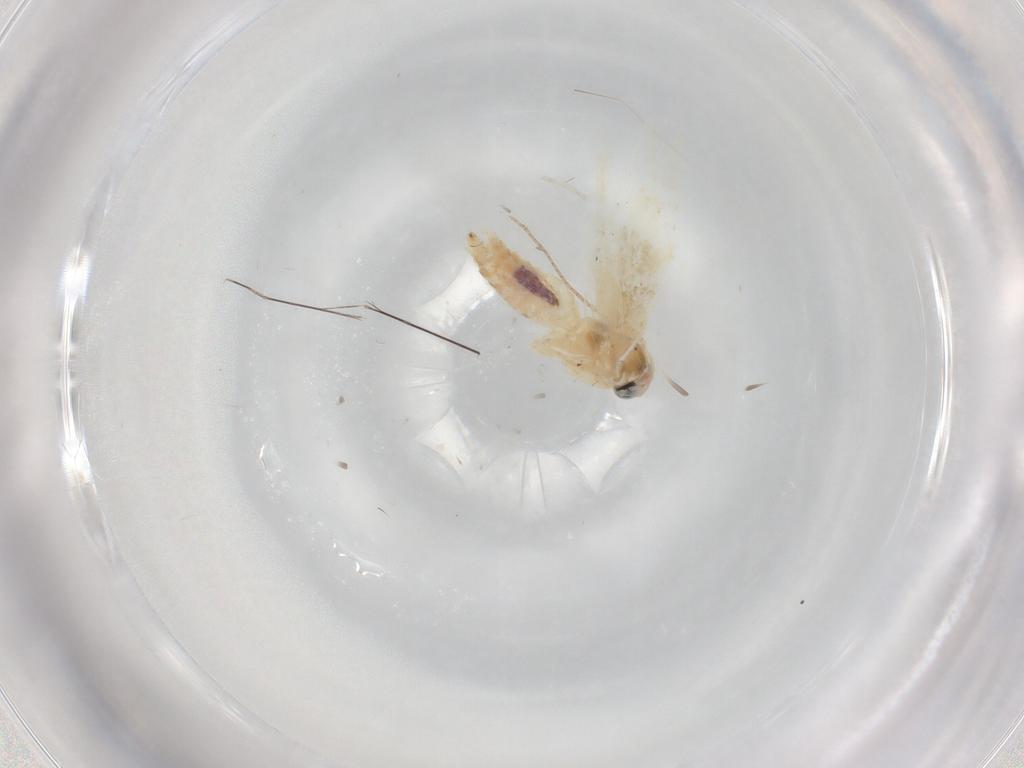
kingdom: Animalia
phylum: Arthropoda
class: Insecta
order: Lepidoptera
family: Bucculatricidae
